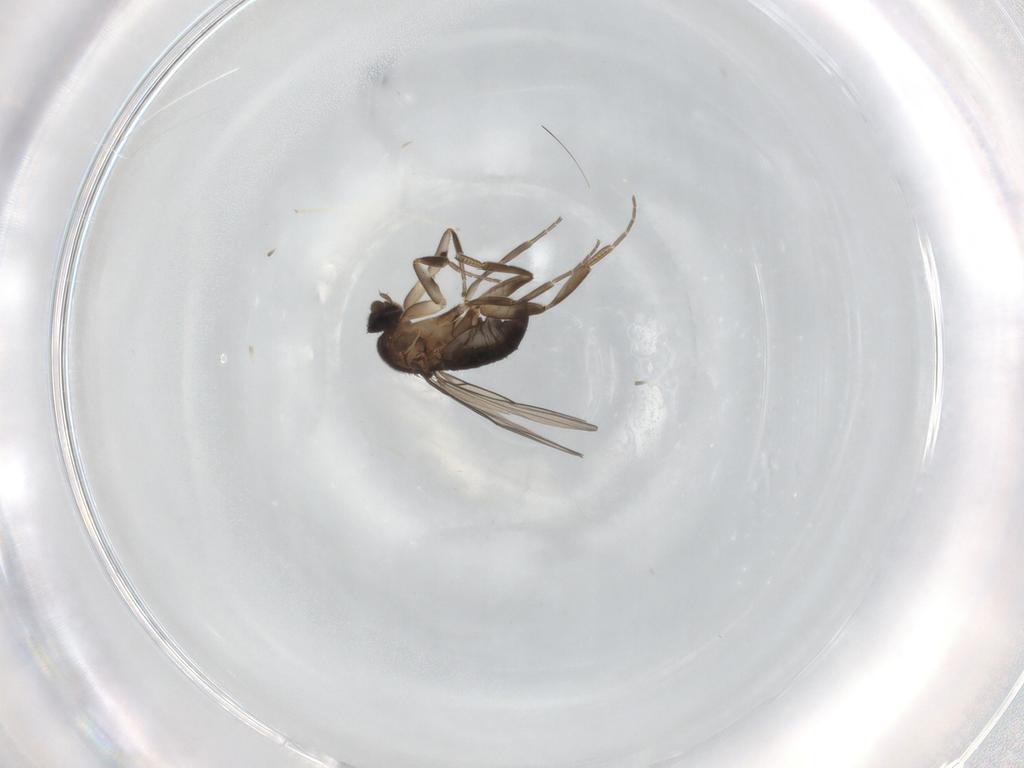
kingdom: Animalia
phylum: Arthropoda
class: Insecta
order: Diptera
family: Phoridae
